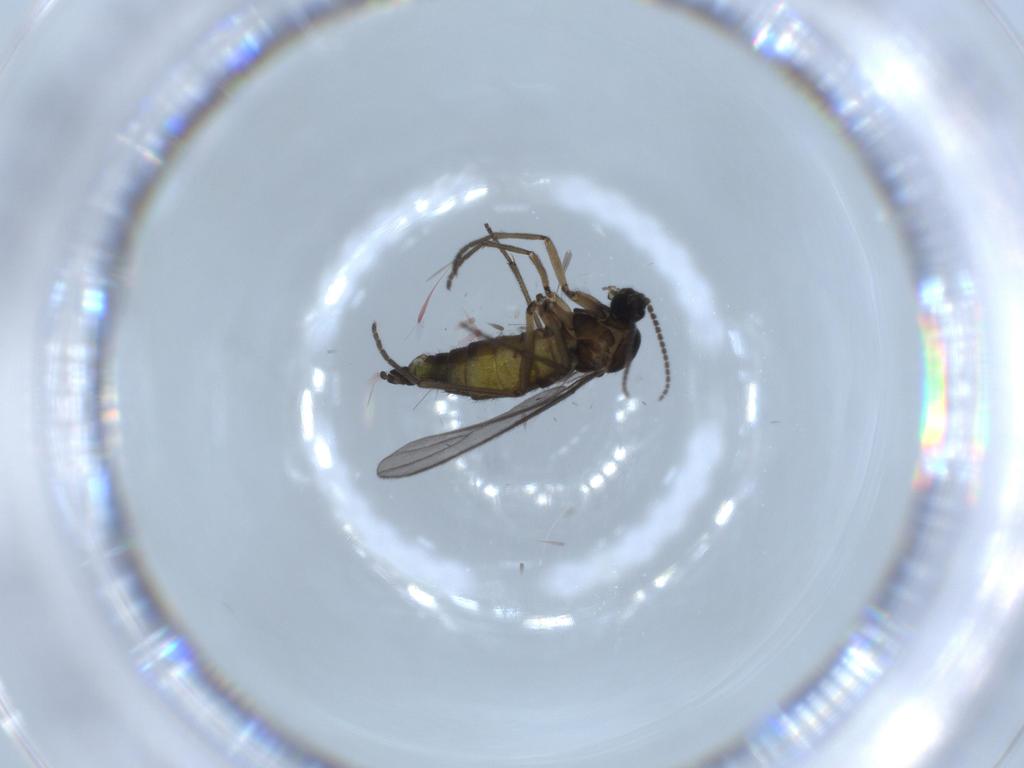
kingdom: Animalia
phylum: Arthropoda
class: Insecta
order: Diptera
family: Sciaridae
